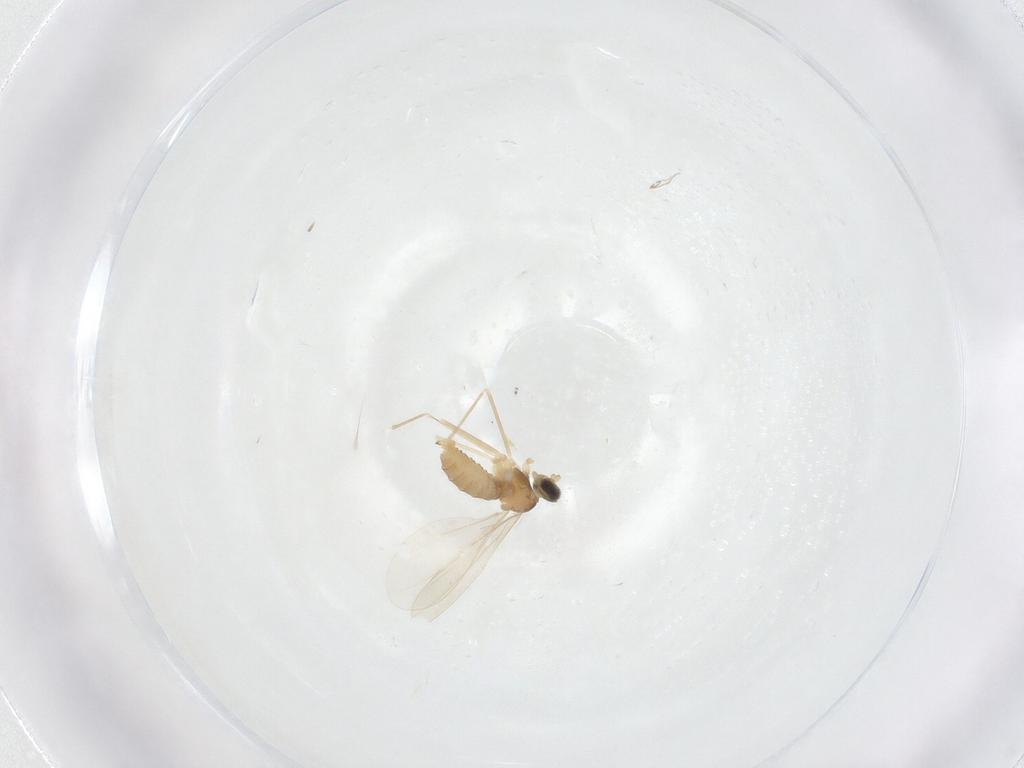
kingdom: Animalia
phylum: Arthropoda
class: Insecta
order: Diptera
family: Cecidomyiidae
